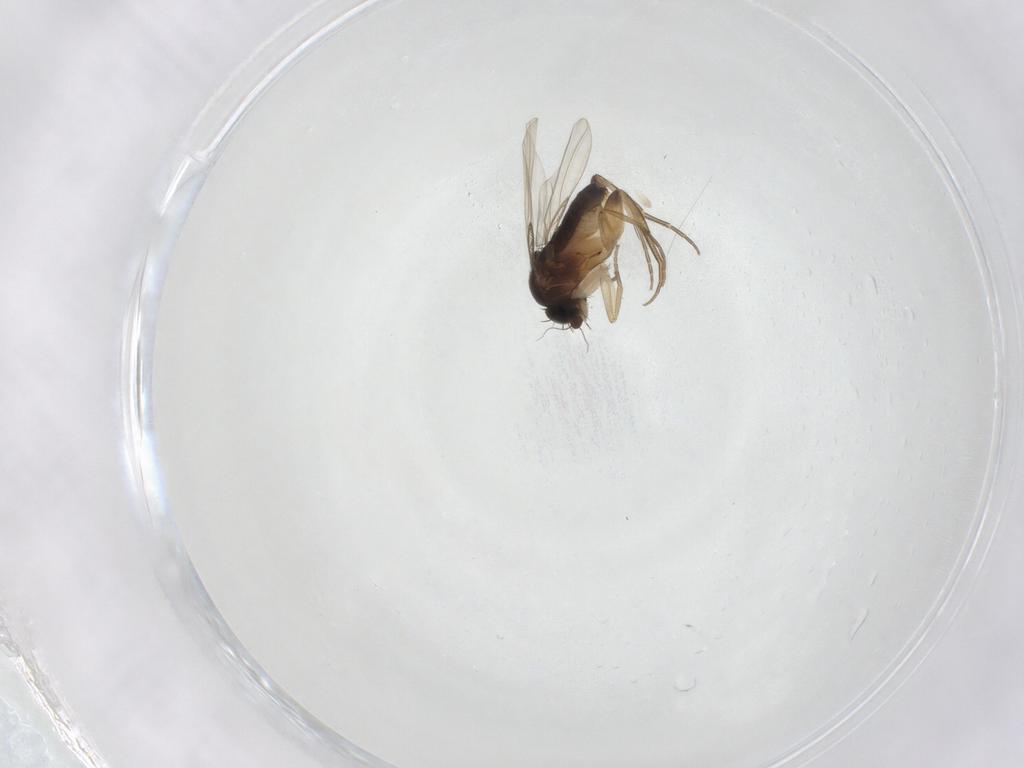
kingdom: Animalia
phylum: Arthropoda
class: Insecta
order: Diptera
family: Phoridae
